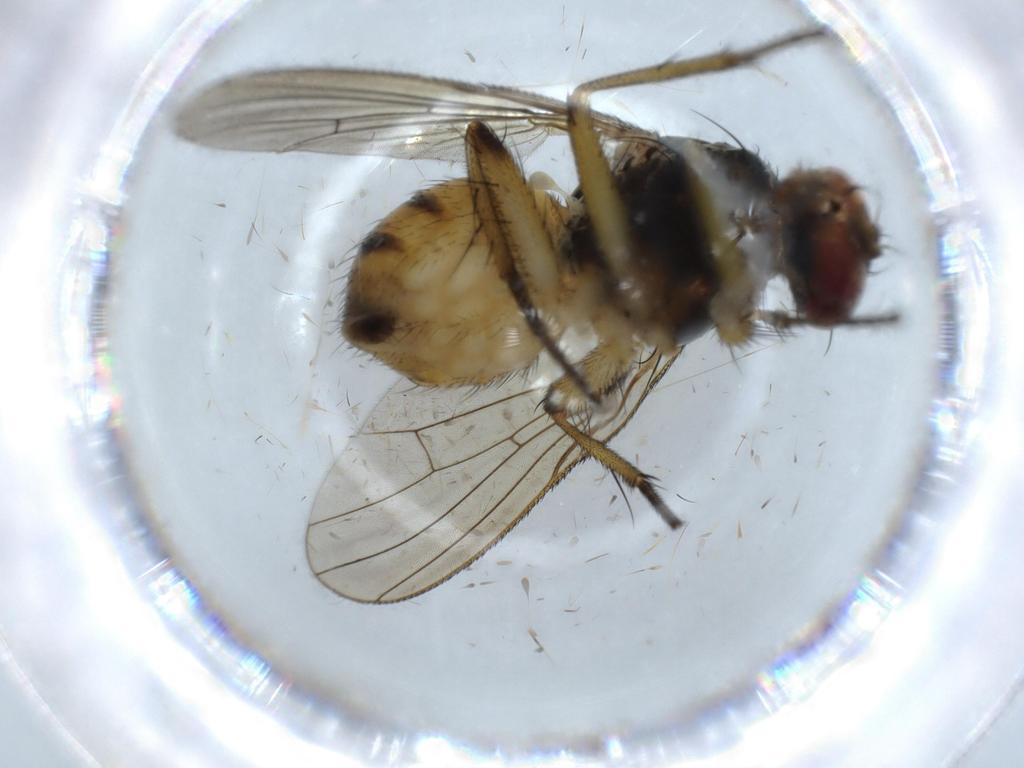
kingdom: Animalia
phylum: Arthropoda
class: Insecta
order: Diptera
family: Muscidae
